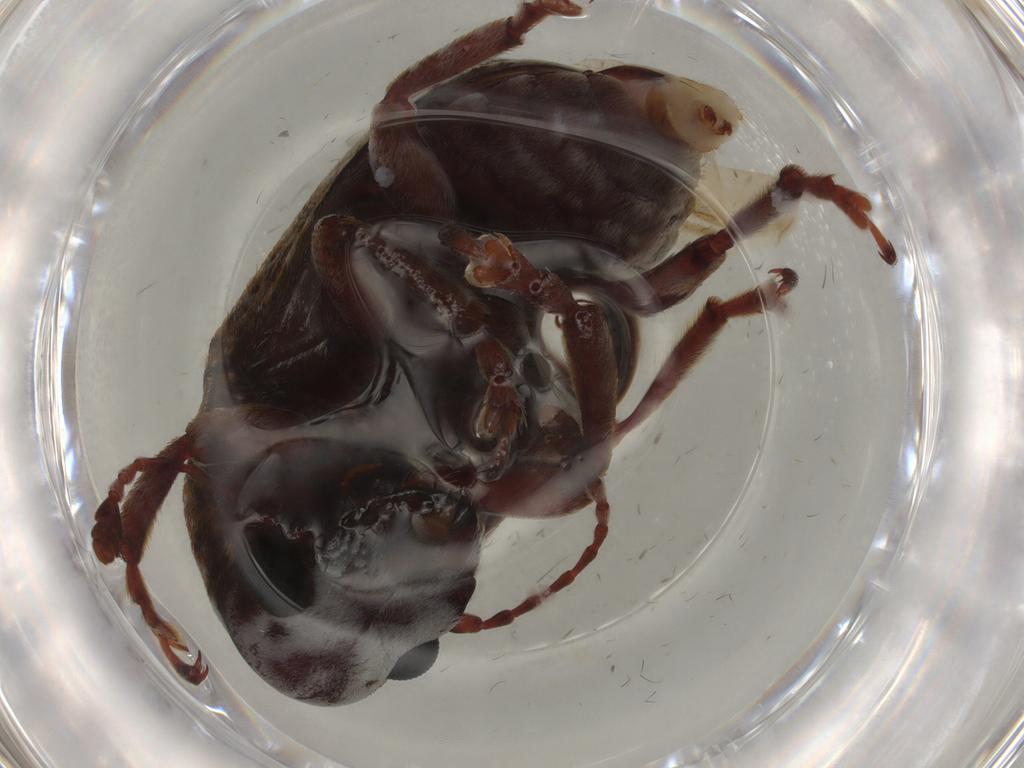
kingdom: Animalia
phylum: Arthropoda
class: Insecta
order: Coleoptera
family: Anthribidae
